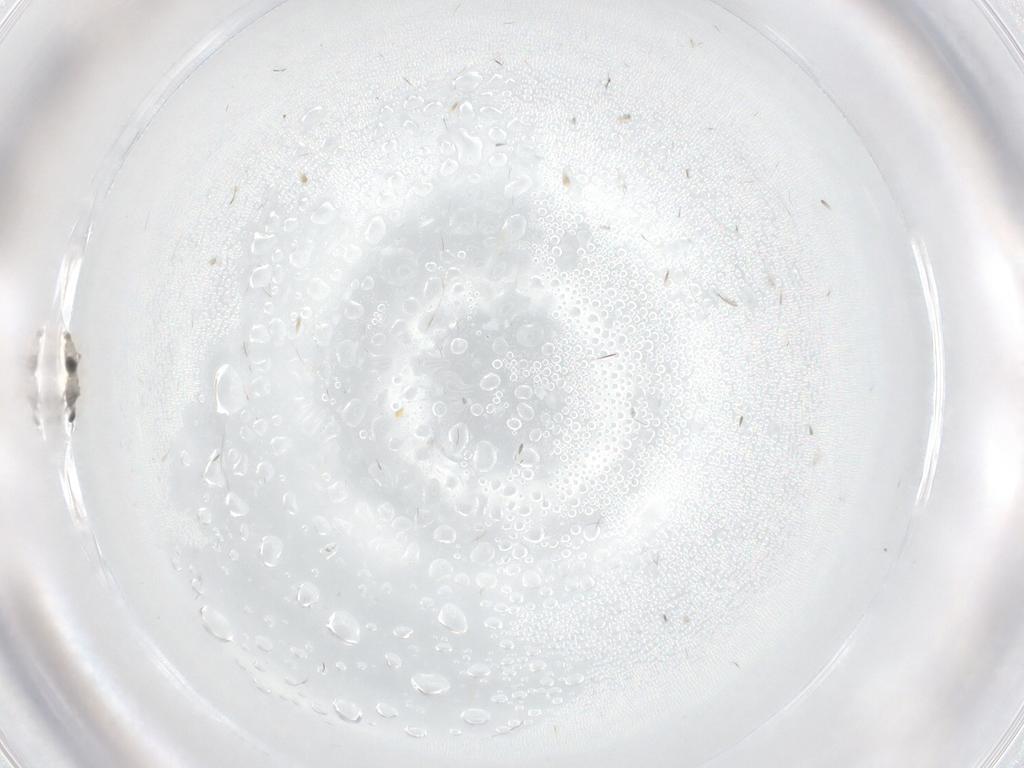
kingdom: Animalia
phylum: Arthropoda
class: Insecta
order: Diptera
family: Cecidomyiidae
